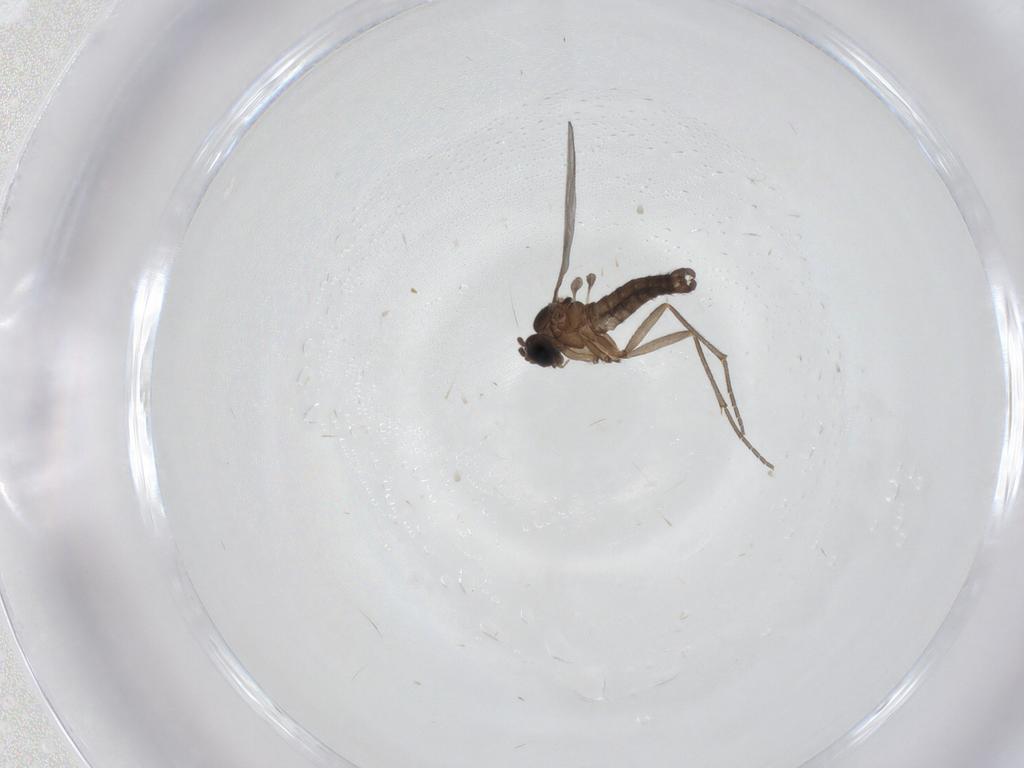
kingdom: Animalia
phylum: Arthropoda
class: Insecta
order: Diptera
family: Sciaridae
